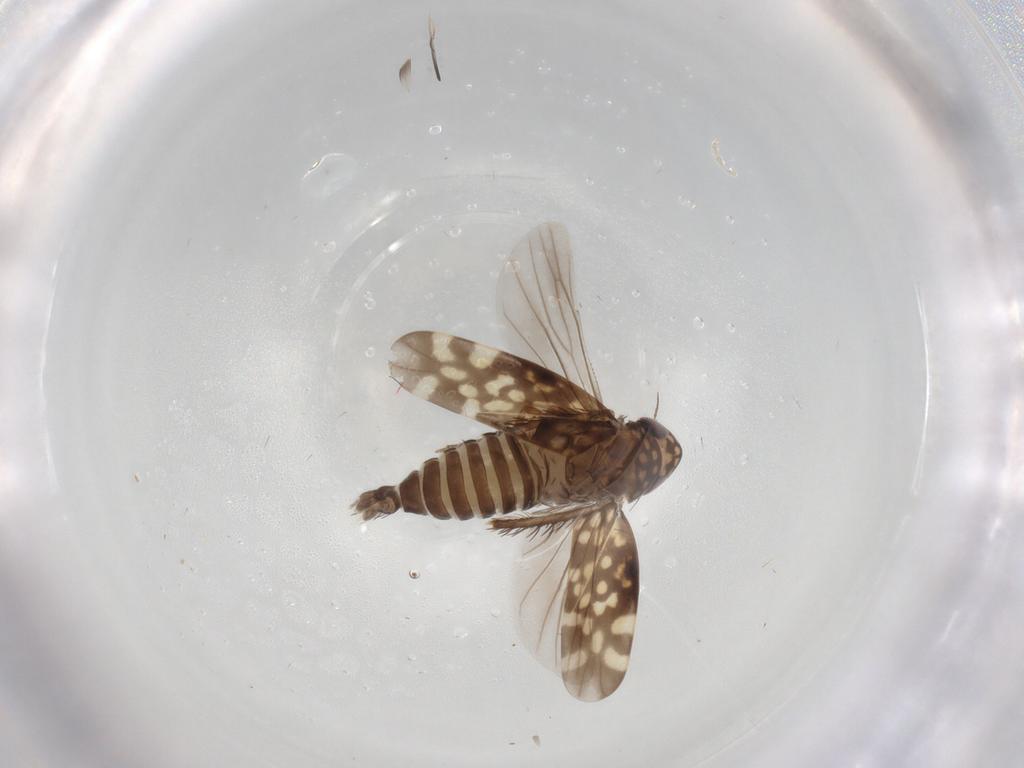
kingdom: Animalia
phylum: Arthropoda
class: Insecta
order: Hemiptera
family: Cicadellidae
